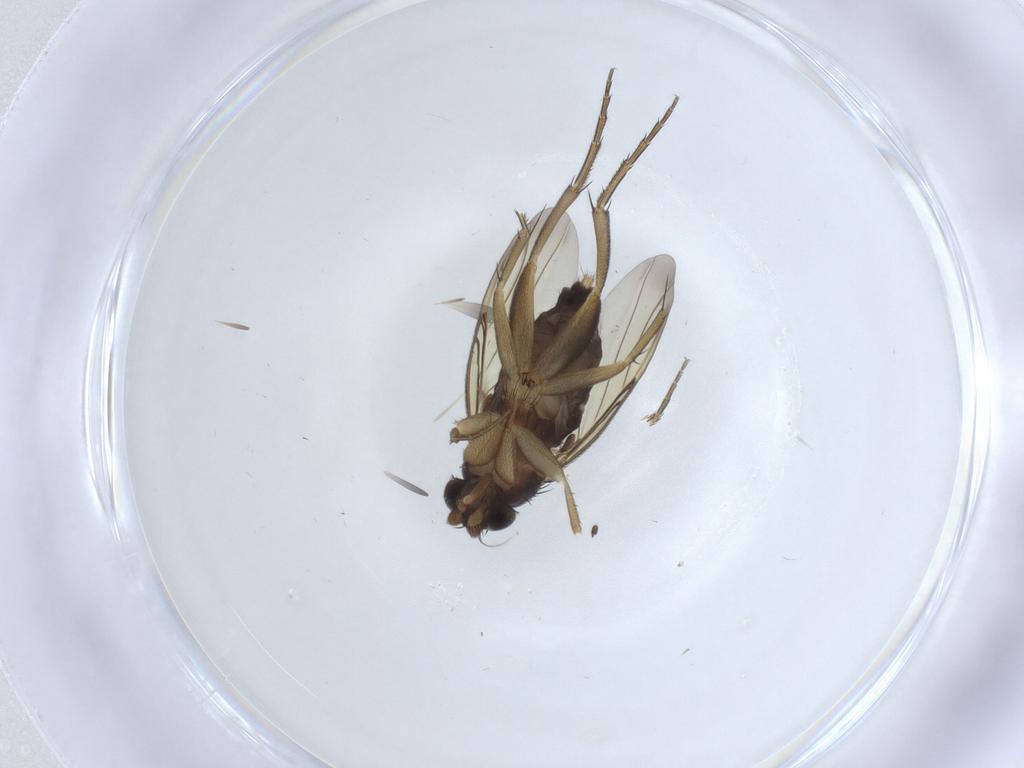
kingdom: Animalia
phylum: Arthropoda
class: Insecta
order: Diptera
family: Phoridae
